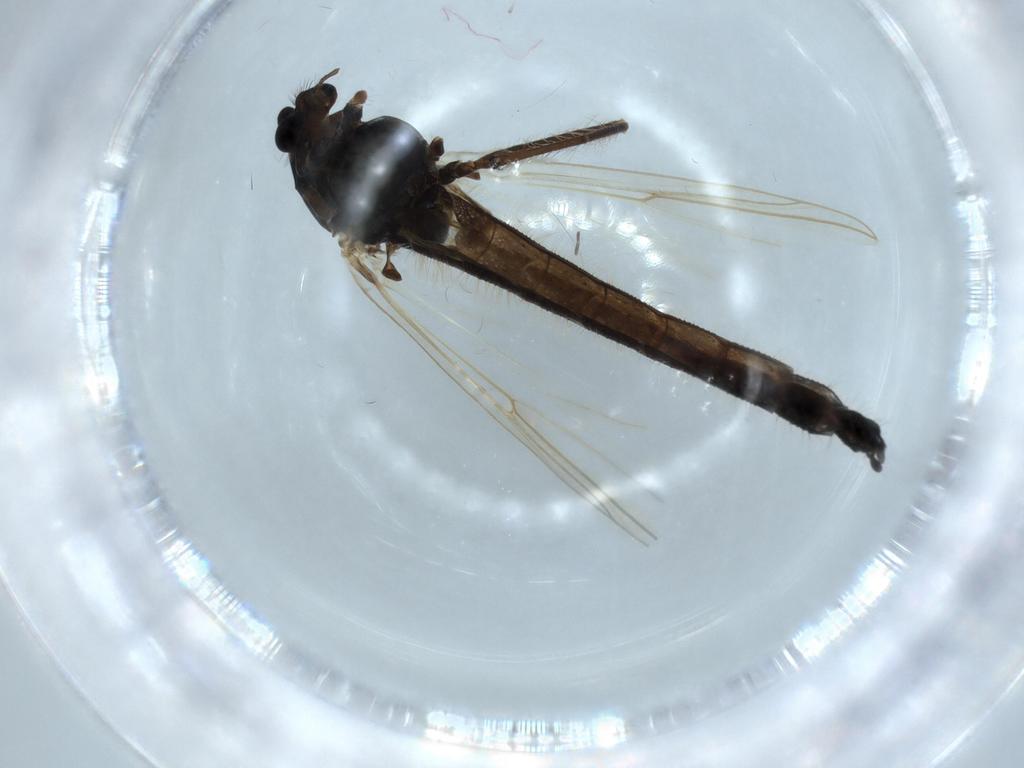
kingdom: Animalia
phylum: Arthropoda
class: Insecta
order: Diptera
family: Chironomidae
